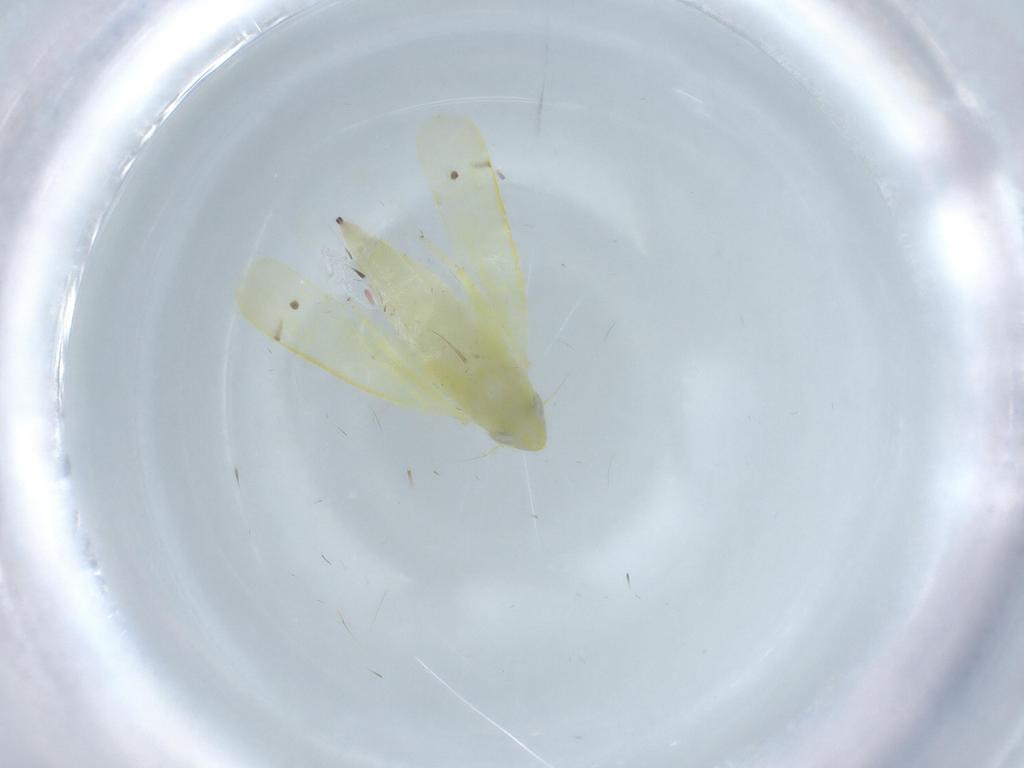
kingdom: Animalia
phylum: Arthropoda
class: Insecta
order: Hemiptera
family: Cicadellidae
